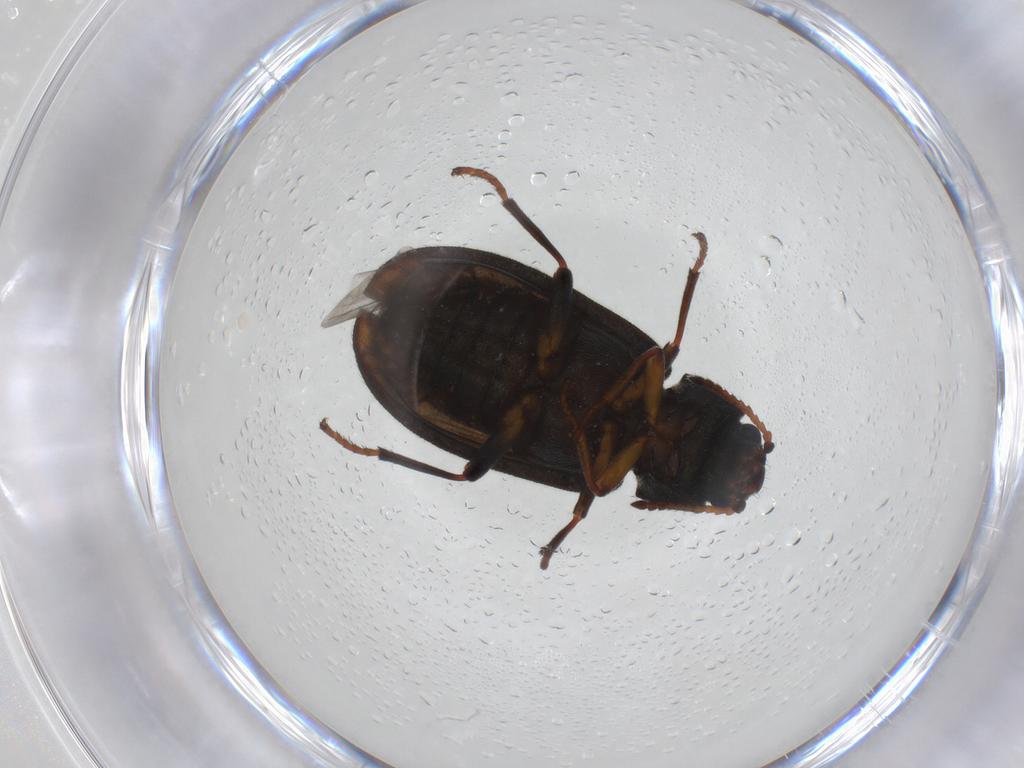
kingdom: Animalia
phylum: Arthropoda
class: Insecta
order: Coleoptera
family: Melyridae
